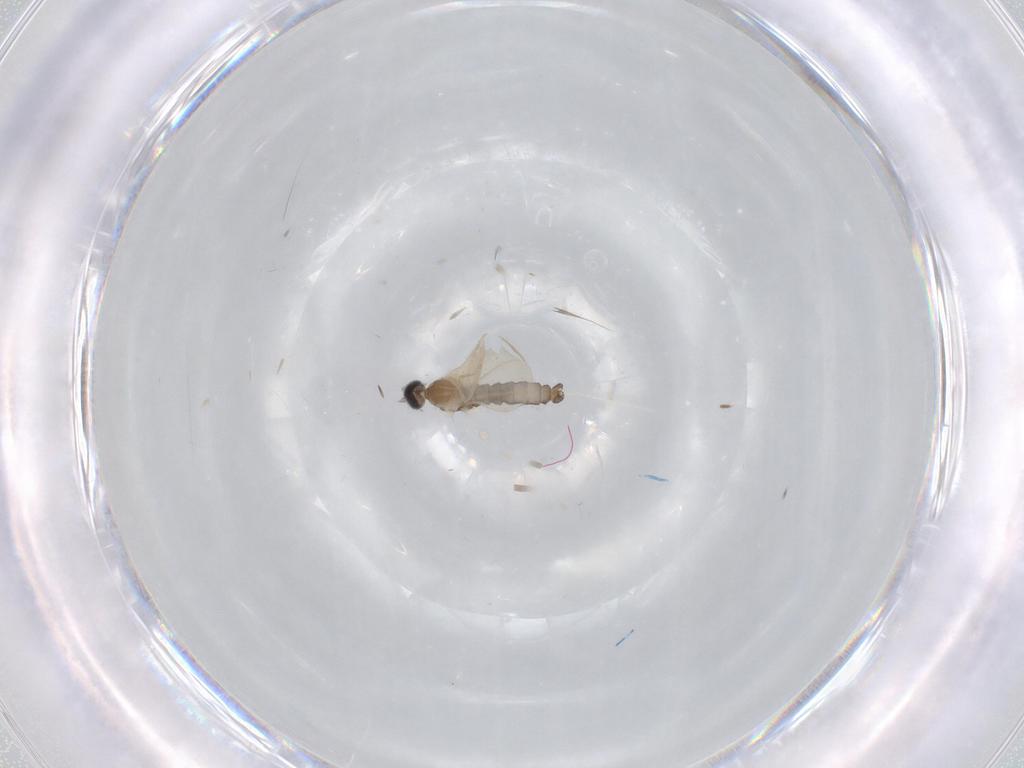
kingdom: Animalia
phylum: Arthropoda
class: Insecta
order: Diptera
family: Cecidomyiidae
